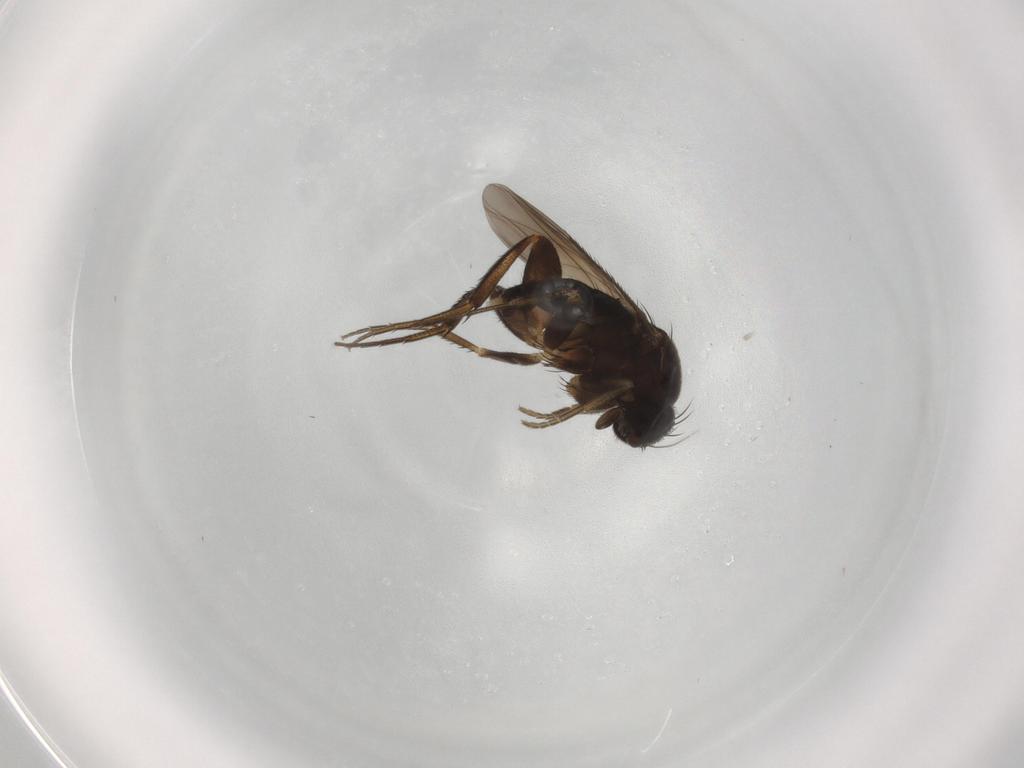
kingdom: Animalia
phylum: Arthropoda
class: Insecta
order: Diptera
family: Phoridae
